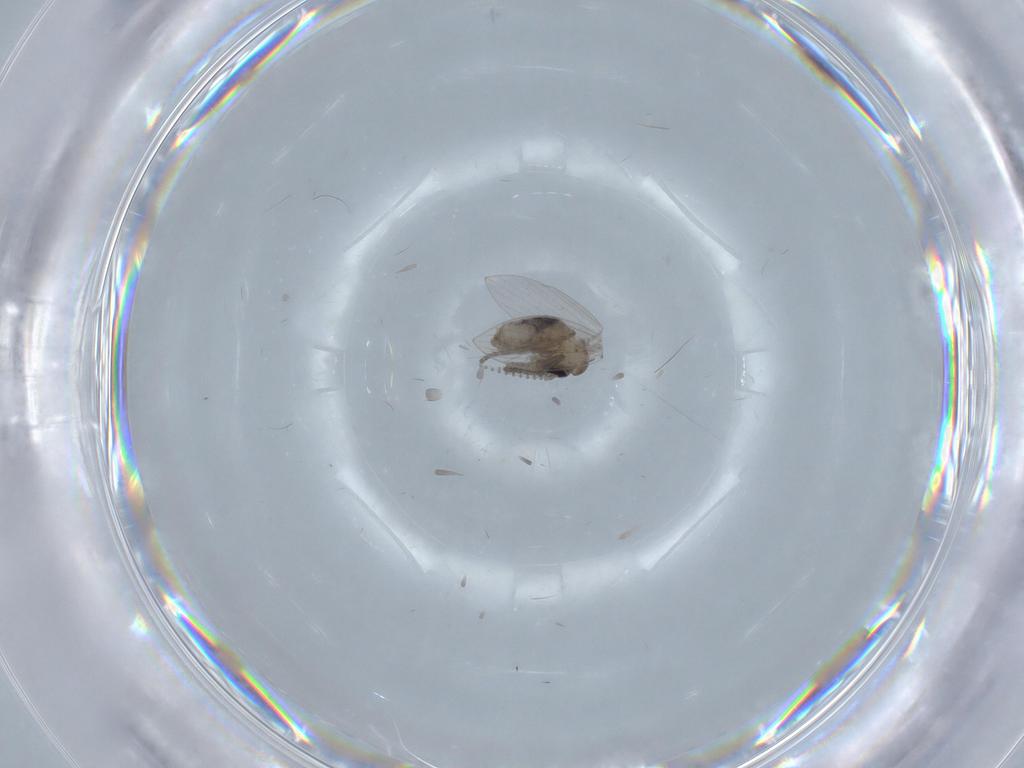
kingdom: Animalia
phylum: Arthropoda
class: Insecta
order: Diptera
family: Psychodidae
